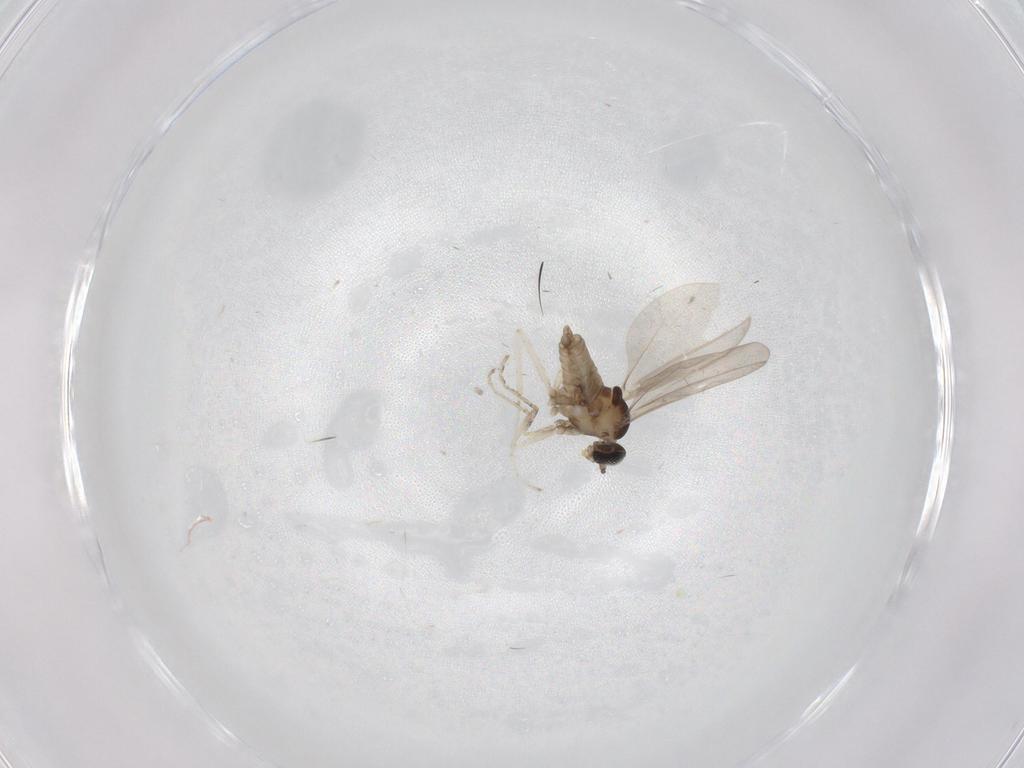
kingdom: Animalia
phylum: Arthropoda
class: Insecta
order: Diptera
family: Cecidomyiidae
